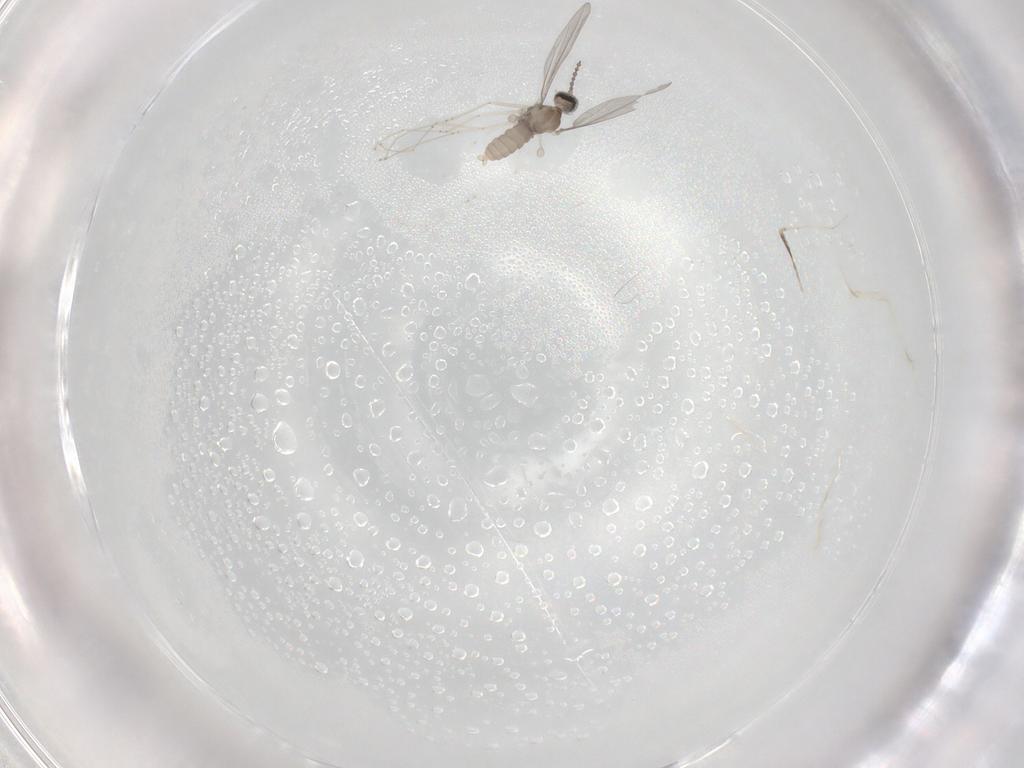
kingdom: Animalia
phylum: Arthropoda
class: Insecta
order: Diptera
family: Cecidomyiidae
